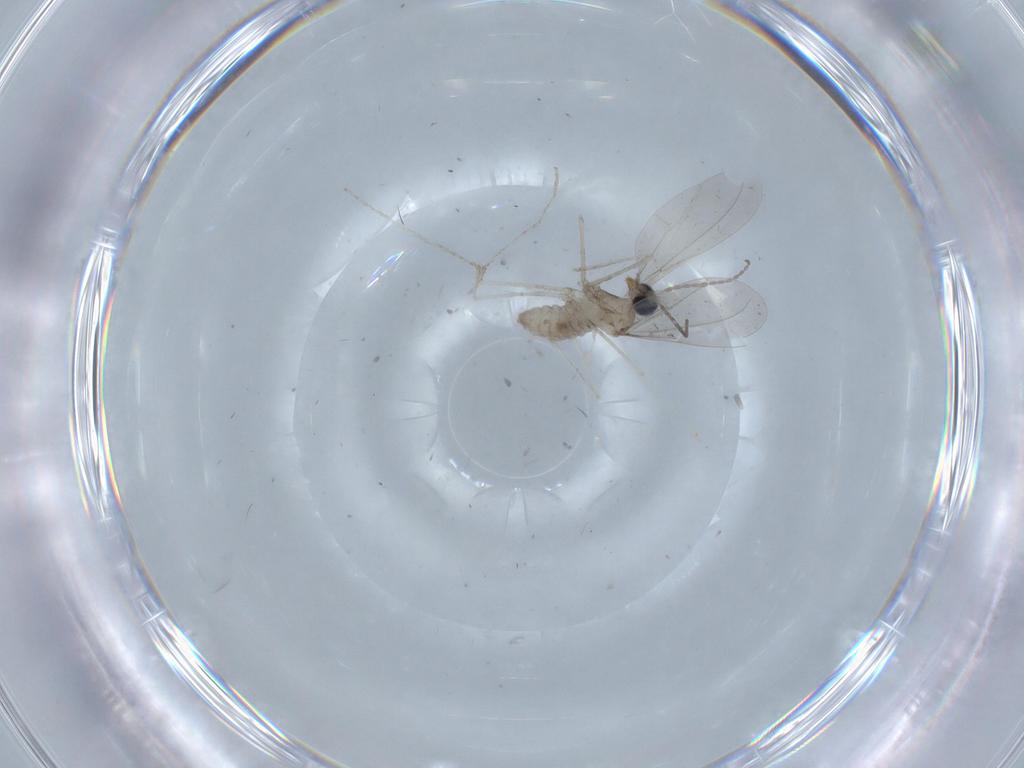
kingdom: Animalia
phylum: Arthropoda
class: Insecta
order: Diptera
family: Cecidomyiidae
